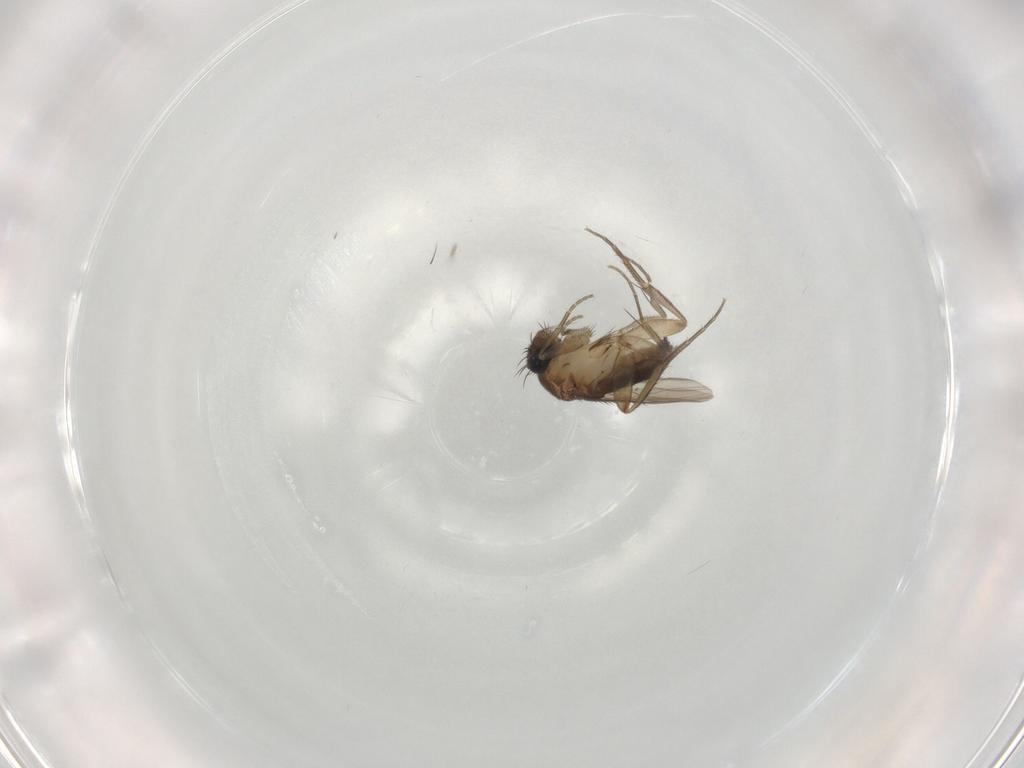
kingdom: Animalia
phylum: Arthropoda
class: Insecta
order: Diptera
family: Phoridae
